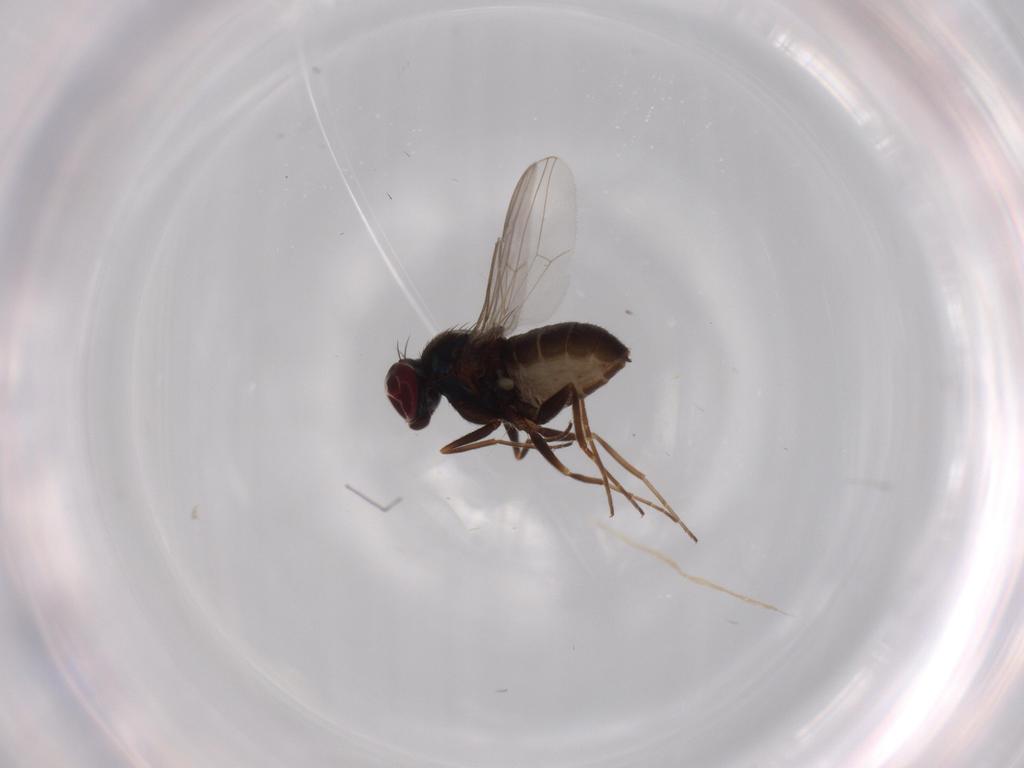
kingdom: Animalia
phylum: Arthropoda
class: Insecta
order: Diptera
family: Dolichopodidae
